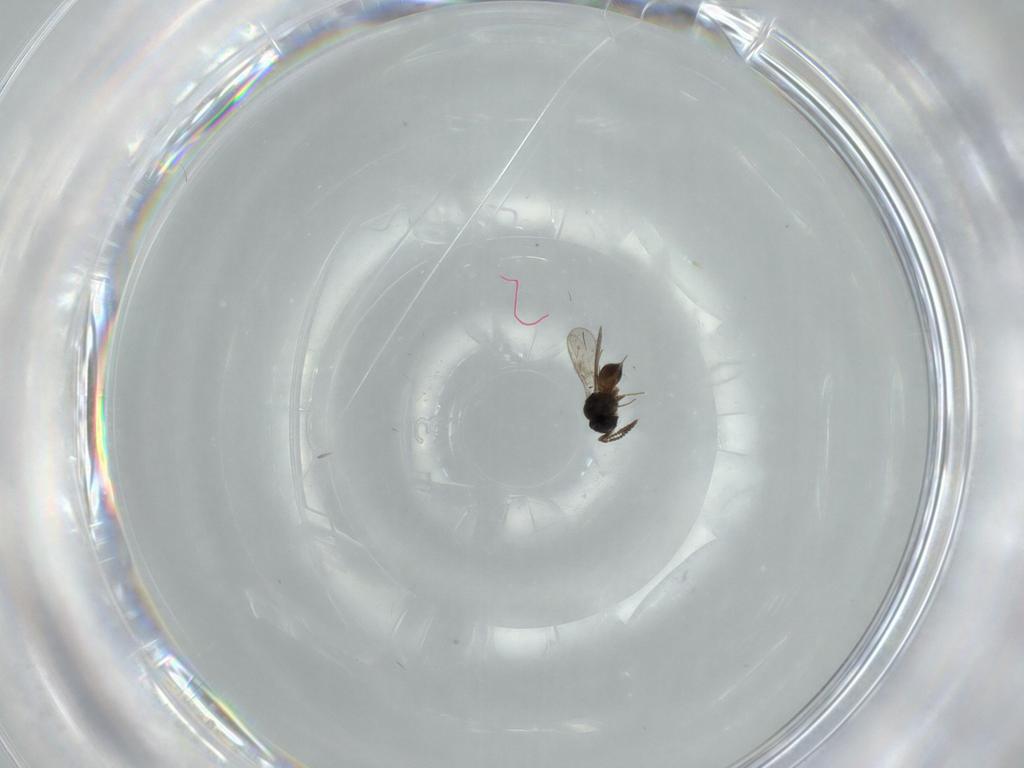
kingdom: Animalia
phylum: Arthropoda
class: Insecta
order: Hymenoptera
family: Scelionidae
